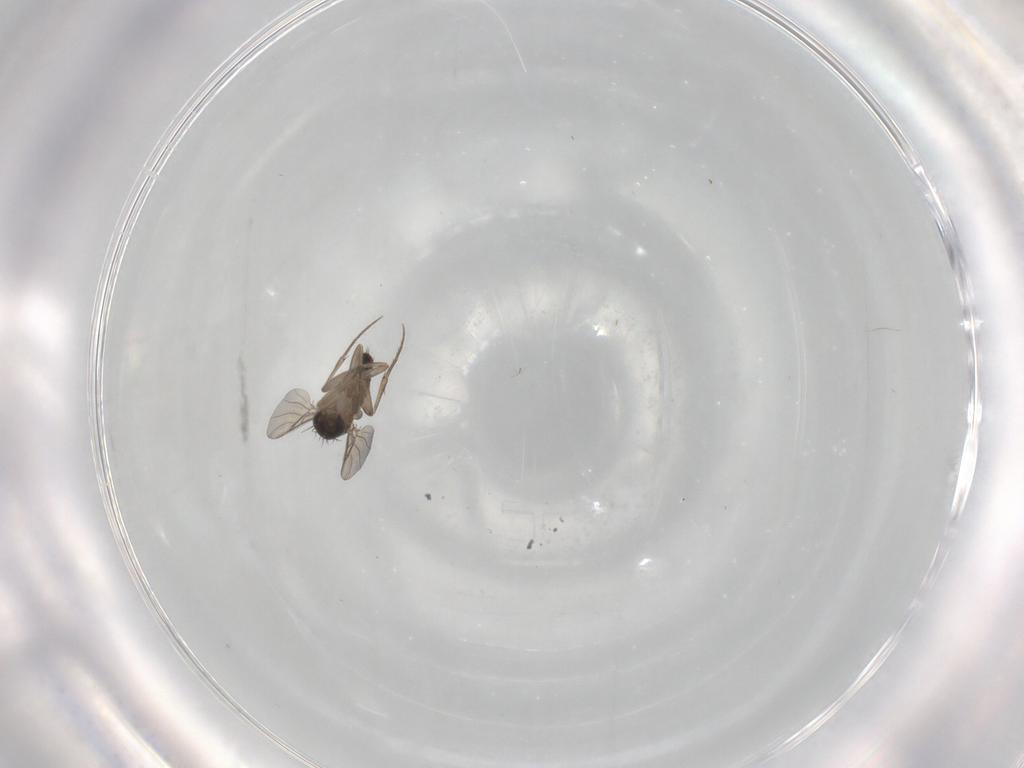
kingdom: Animalia
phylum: Arthropoda
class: Insecta
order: Diptera
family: Phoridae
